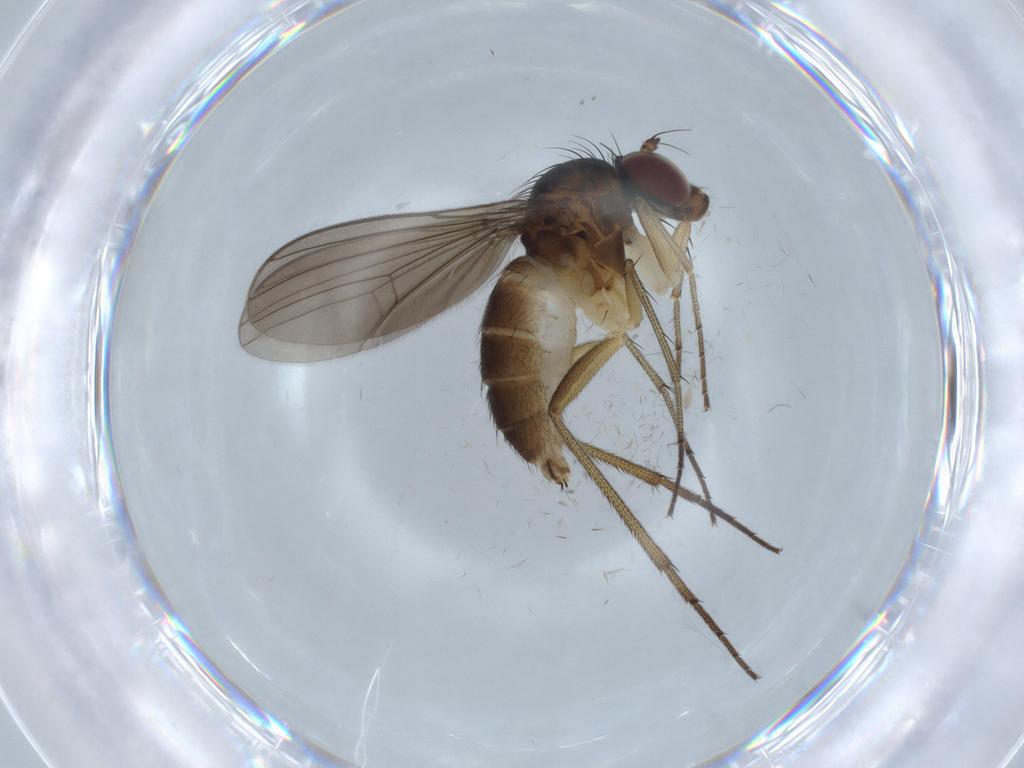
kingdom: Animalia
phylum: Arthropoda
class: Insecta
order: Diptera
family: Dolichopodidae
